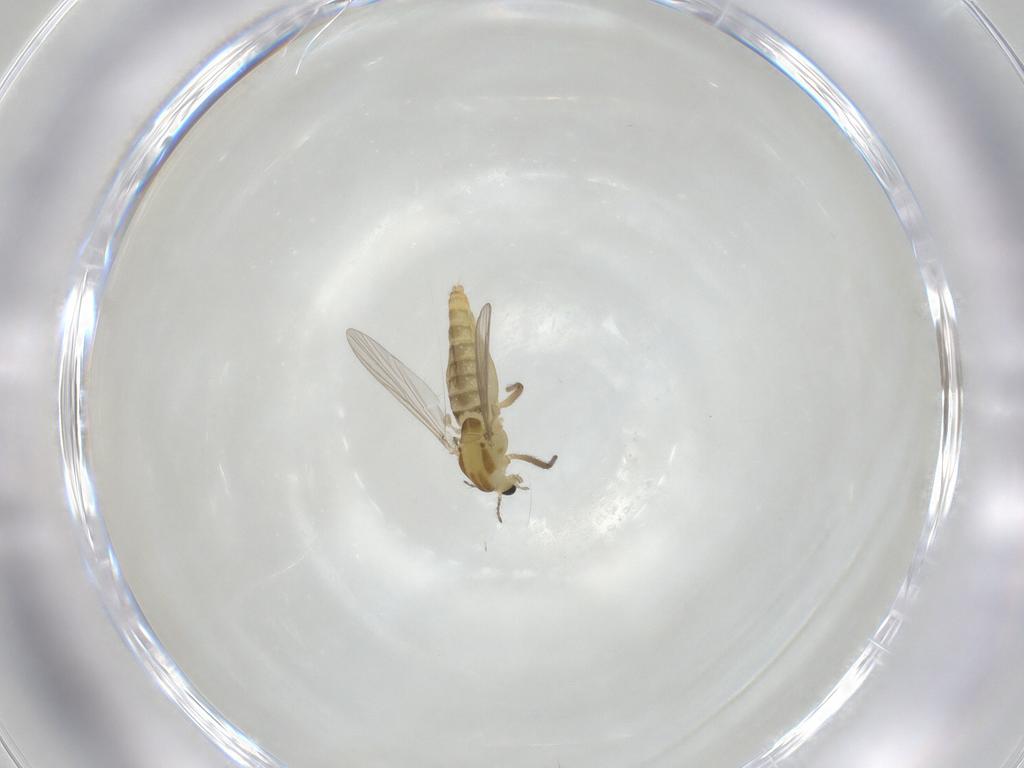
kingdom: Animalia
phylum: Arthropoda
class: Insecta
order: Diptera
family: Chironomidae
